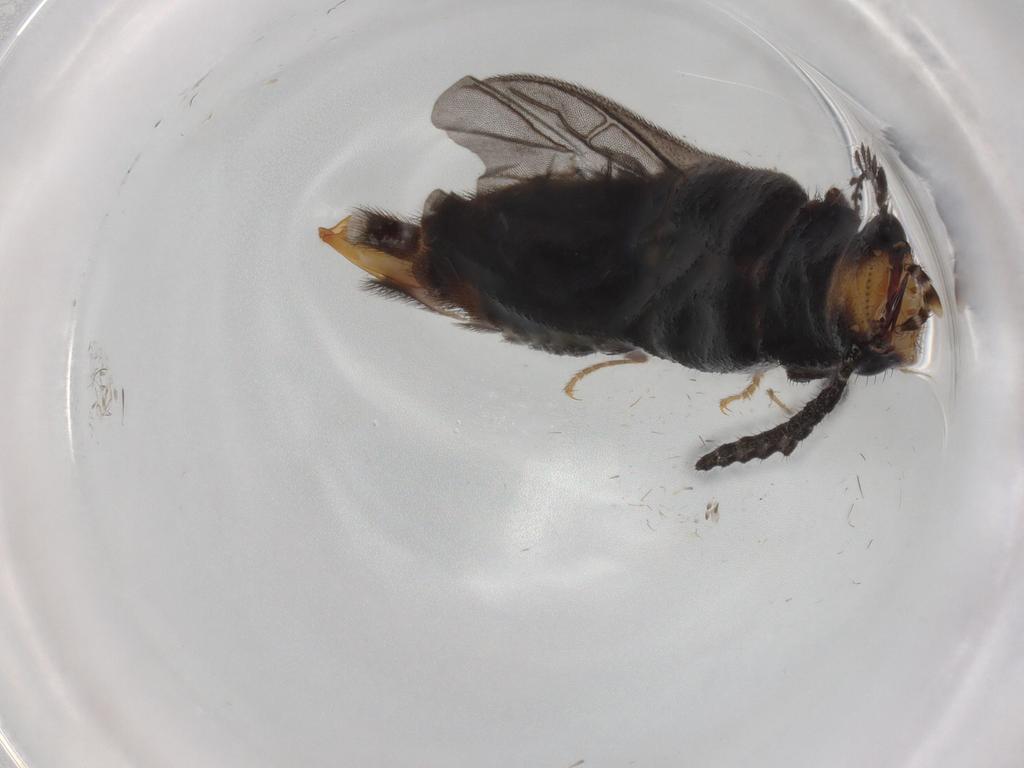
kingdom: Animalia
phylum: Arthropoda
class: Insecta
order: Coleoptera
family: Phengodidae
